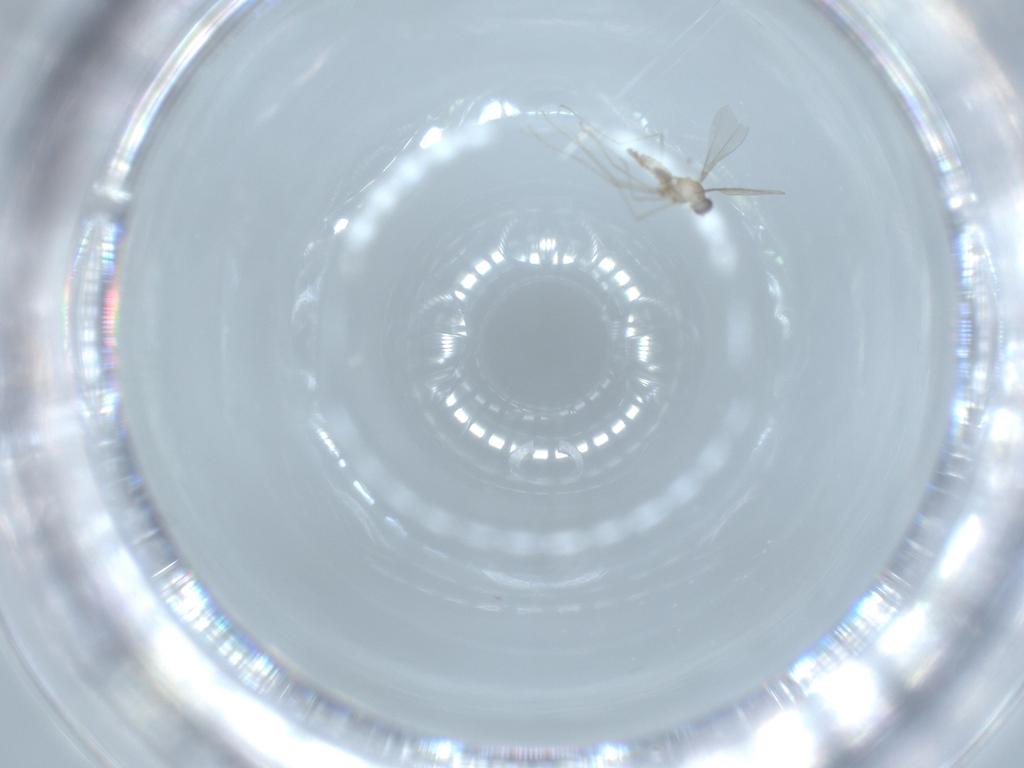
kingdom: Animalia
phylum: Arthropoda
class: Insecta
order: Diptera
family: Cecidomyiidae
